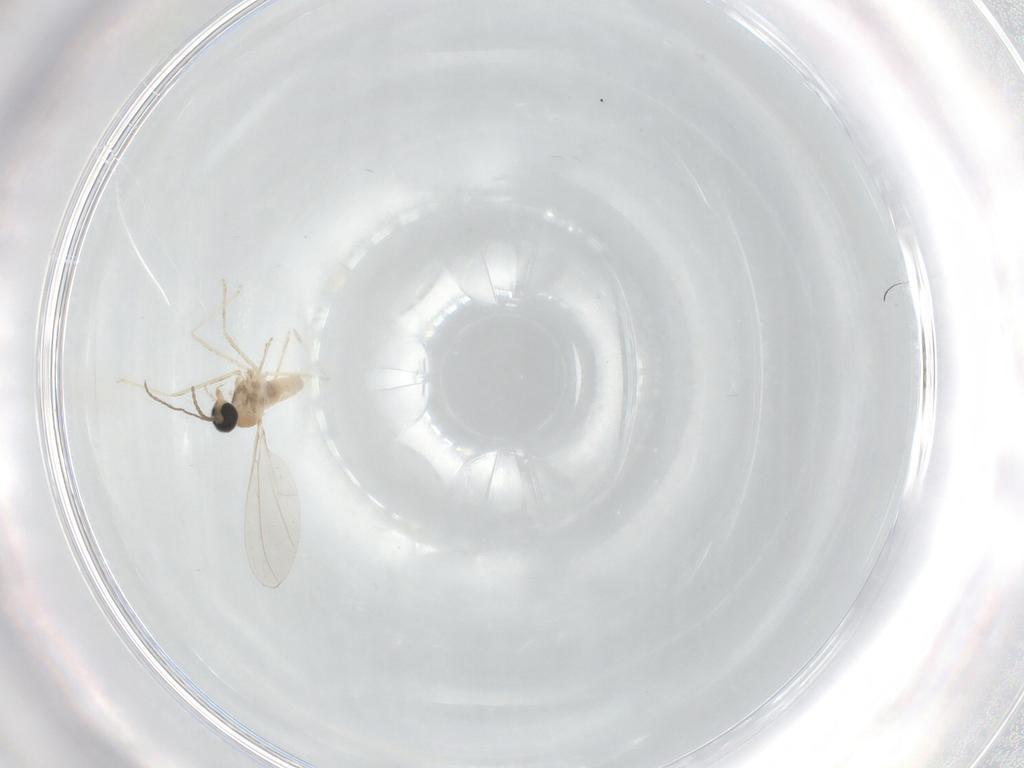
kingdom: Animalia
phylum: Arthropoda
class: Insecta
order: Diptera
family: Cecidomyiidae
